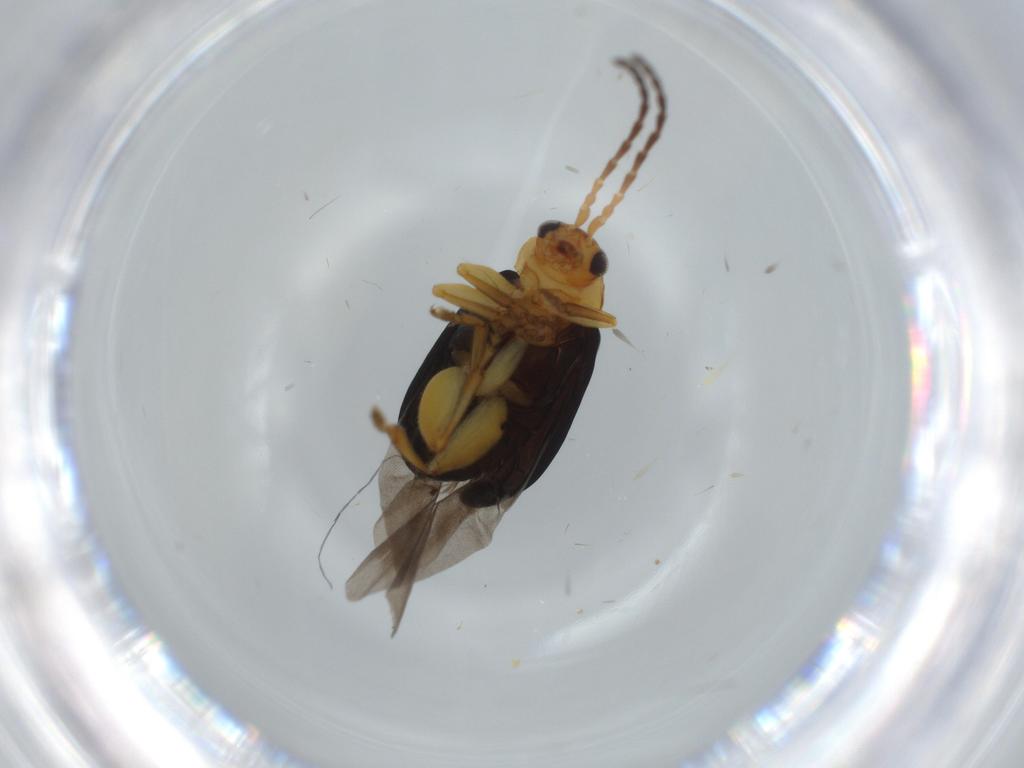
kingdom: Animalia
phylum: Arthropoda
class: Insecta
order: Coleoptera
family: Chrysomelidae
